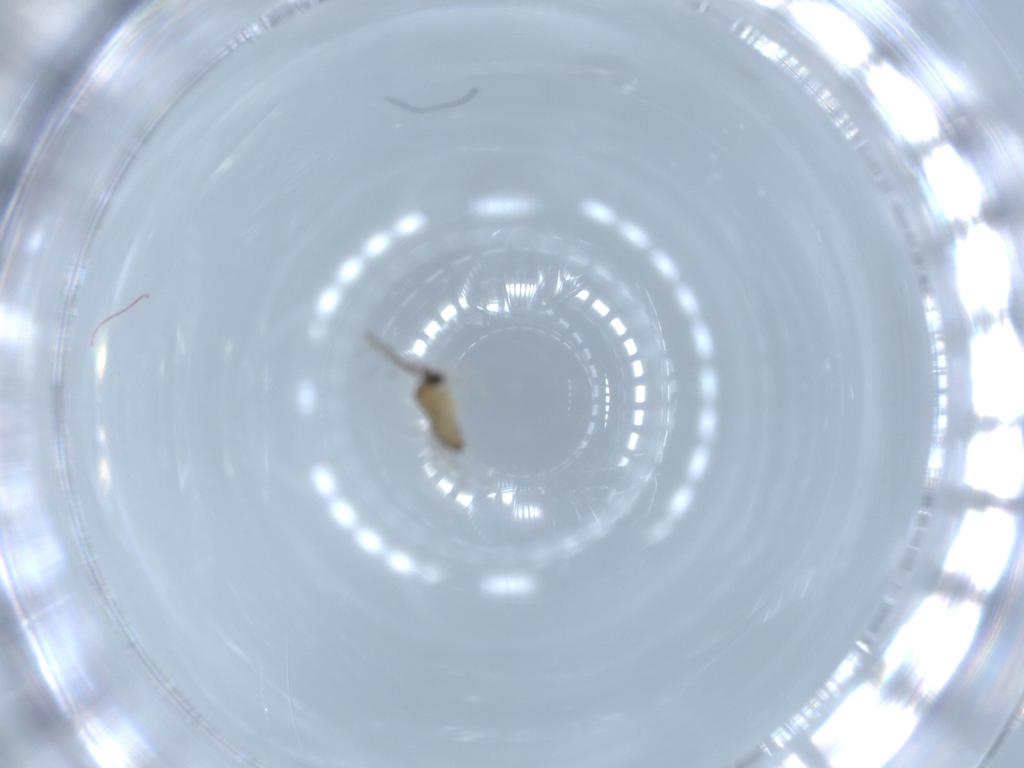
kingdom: Animalia
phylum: Arthropoda
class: Insecta
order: Diptera
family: Cecidomyiidae
